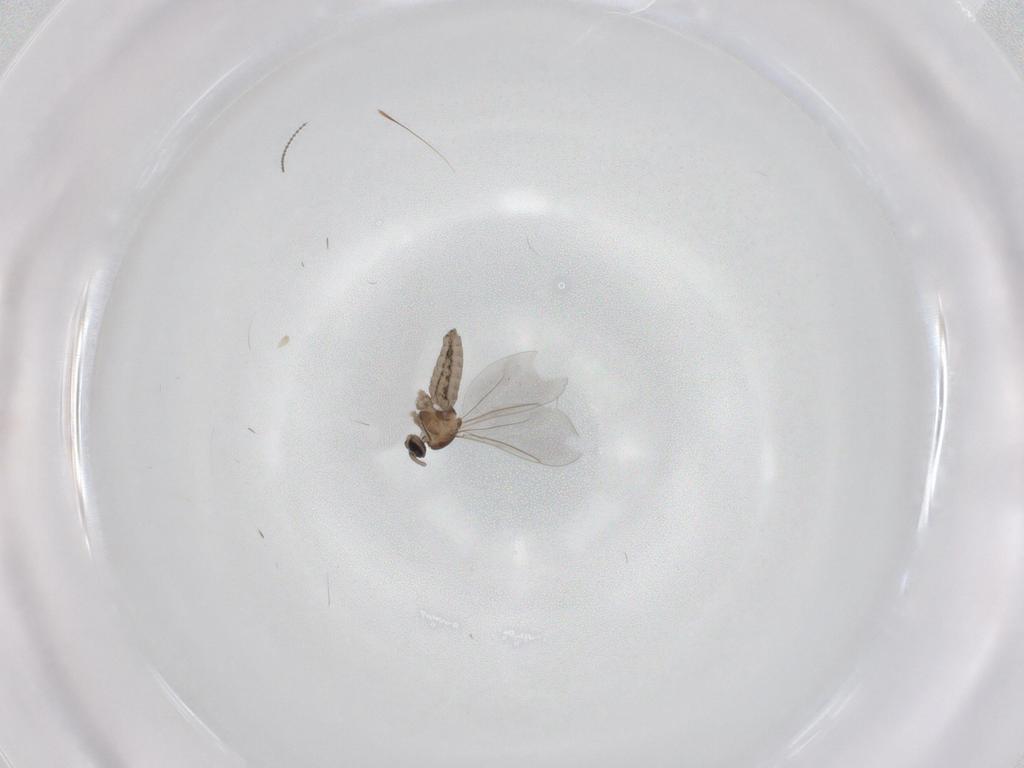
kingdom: Animalia
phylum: Arthropoda
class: Insecta
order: Diptera
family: Cecidomyiidae
